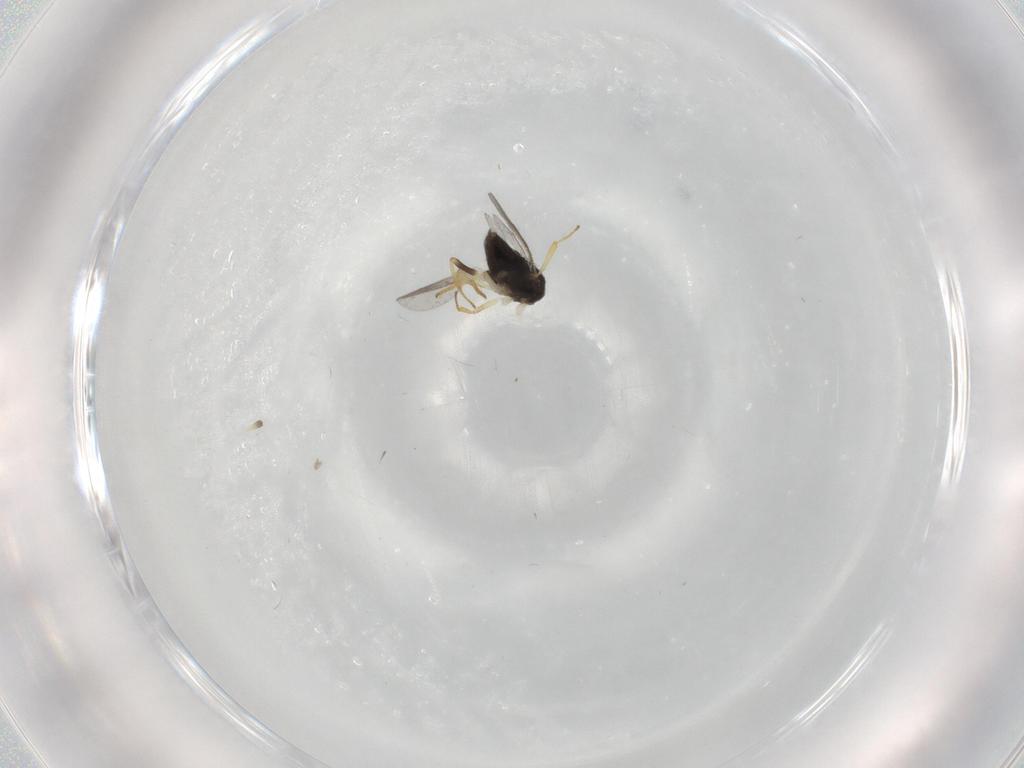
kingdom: Animalia
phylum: Arthropoda
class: Insecta
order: Hymenoptera
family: Encyrtidae
